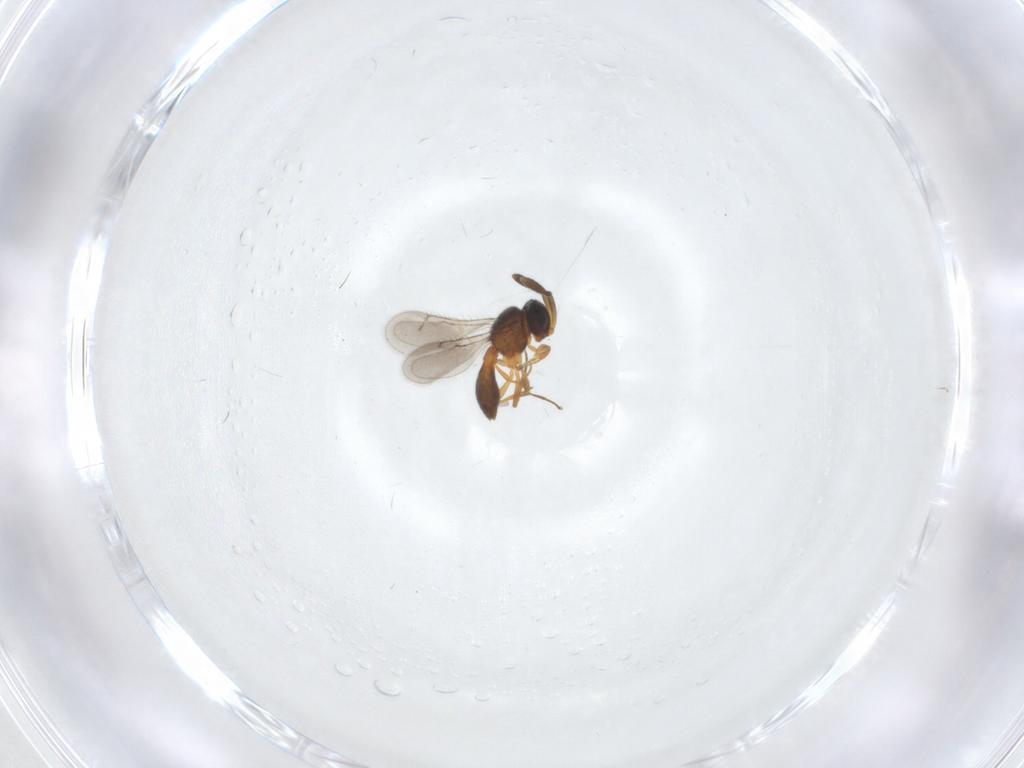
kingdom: Animalia
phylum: Arthropoda
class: Insecta
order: Hymenoptera
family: Scelionidae
